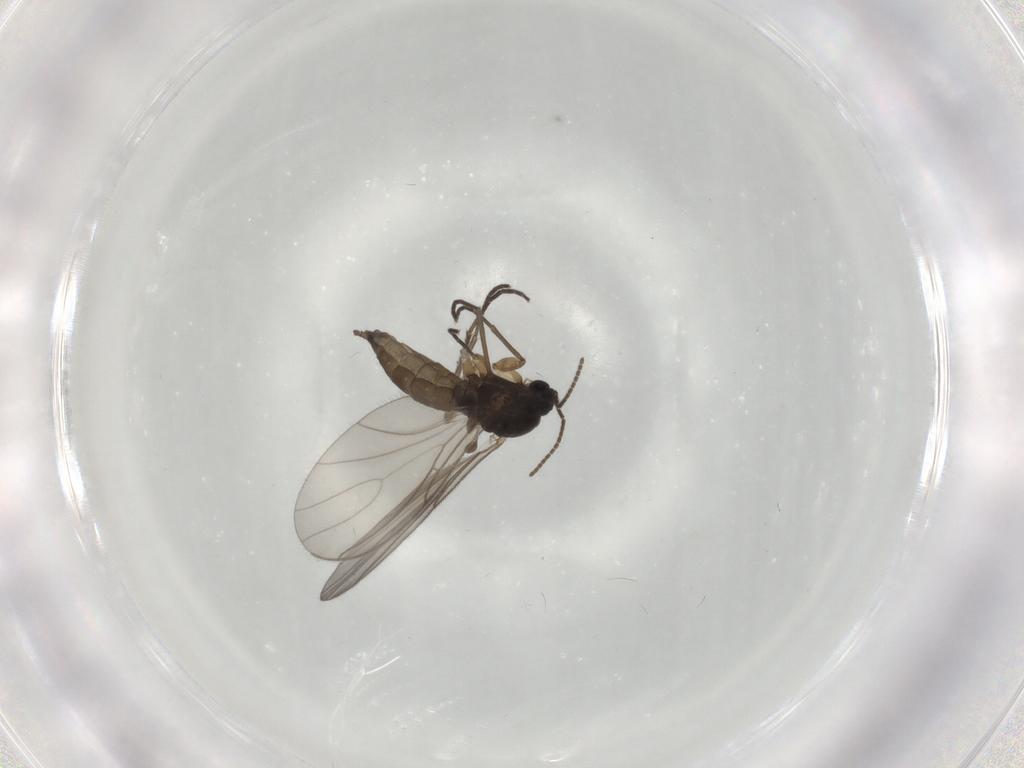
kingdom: Animalia
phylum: Arthropoda
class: Insecta
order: Diptera
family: Sciaridae
